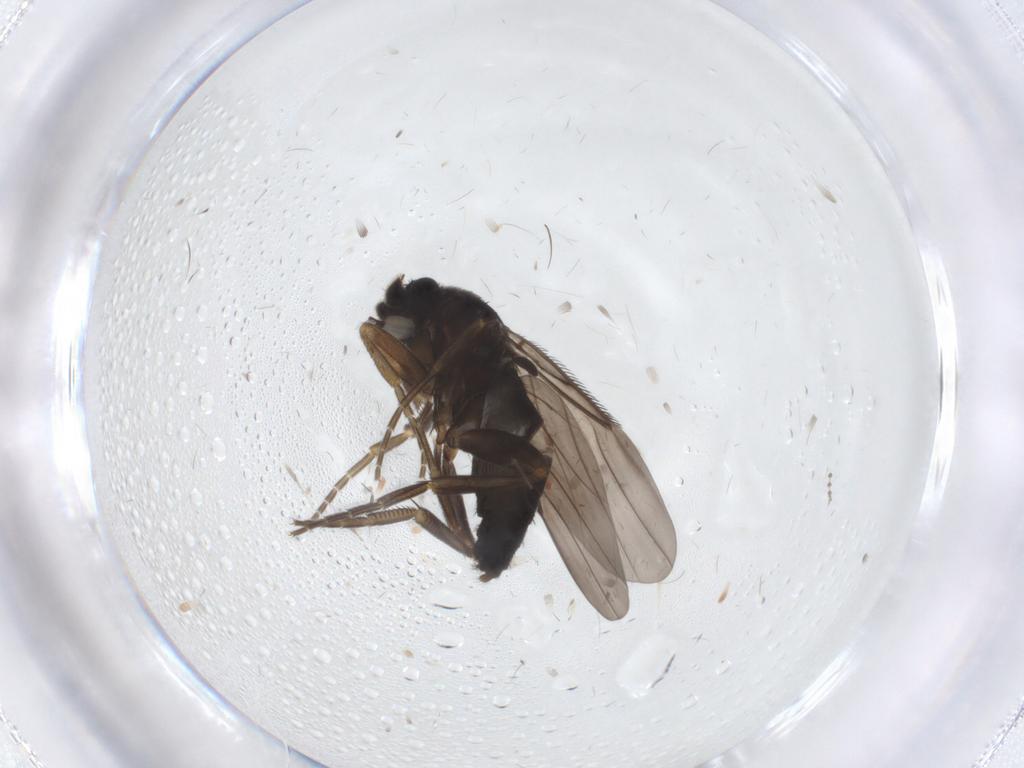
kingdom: Animalia
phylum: Arthropoda
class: Insecta
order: Diptera
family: Phoridae
